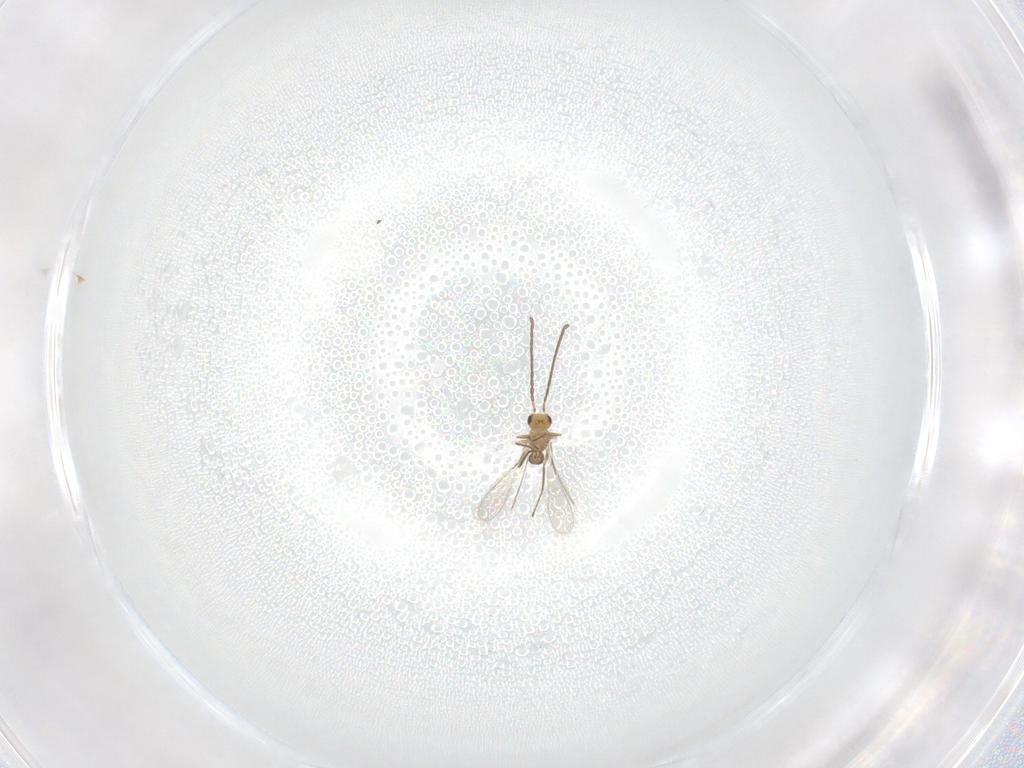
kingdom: Animalia
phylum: Arthropoda
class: Insecta
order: Hymenoptera
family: Mymaridae
